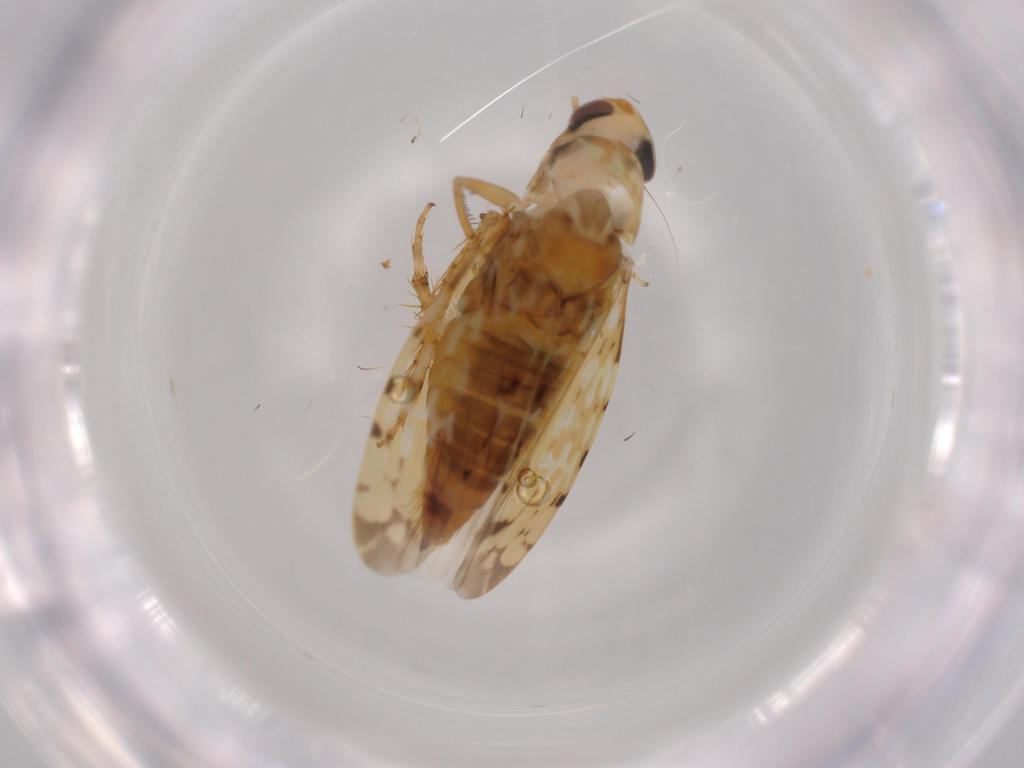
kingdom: Animalia
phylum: Arthropoda
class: Insecta
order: Hemiptera
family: Cicadellidae
